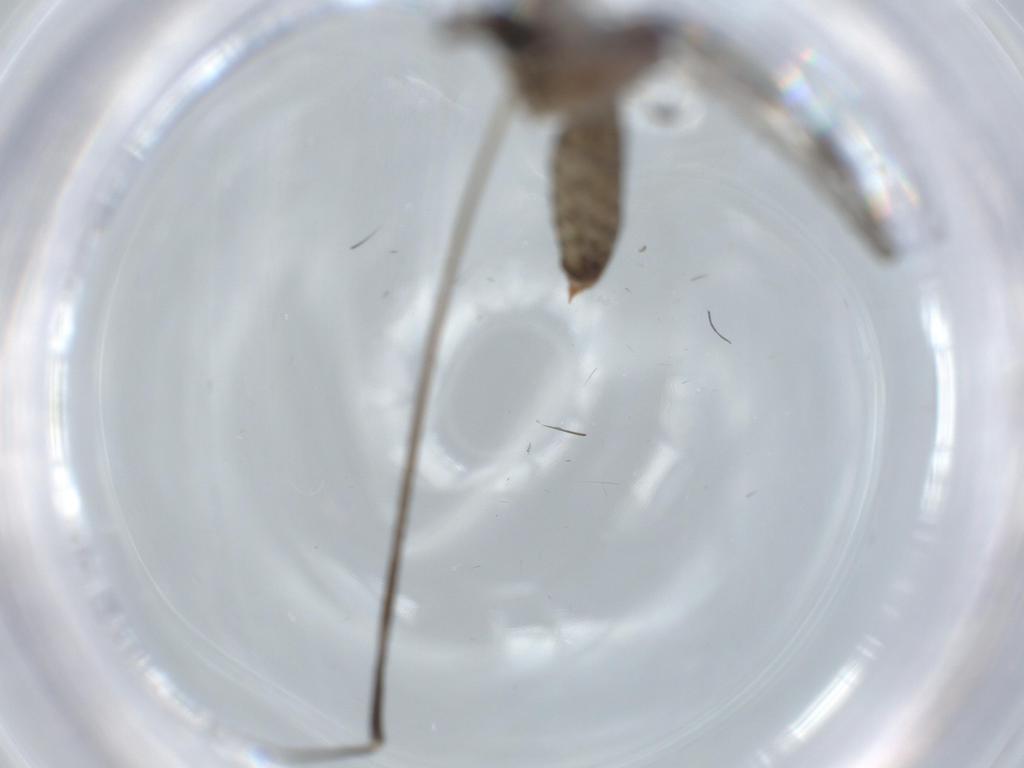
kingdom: Animalia
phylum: Arthropoda
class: Insecta
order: Diptera
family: Limoniidae
